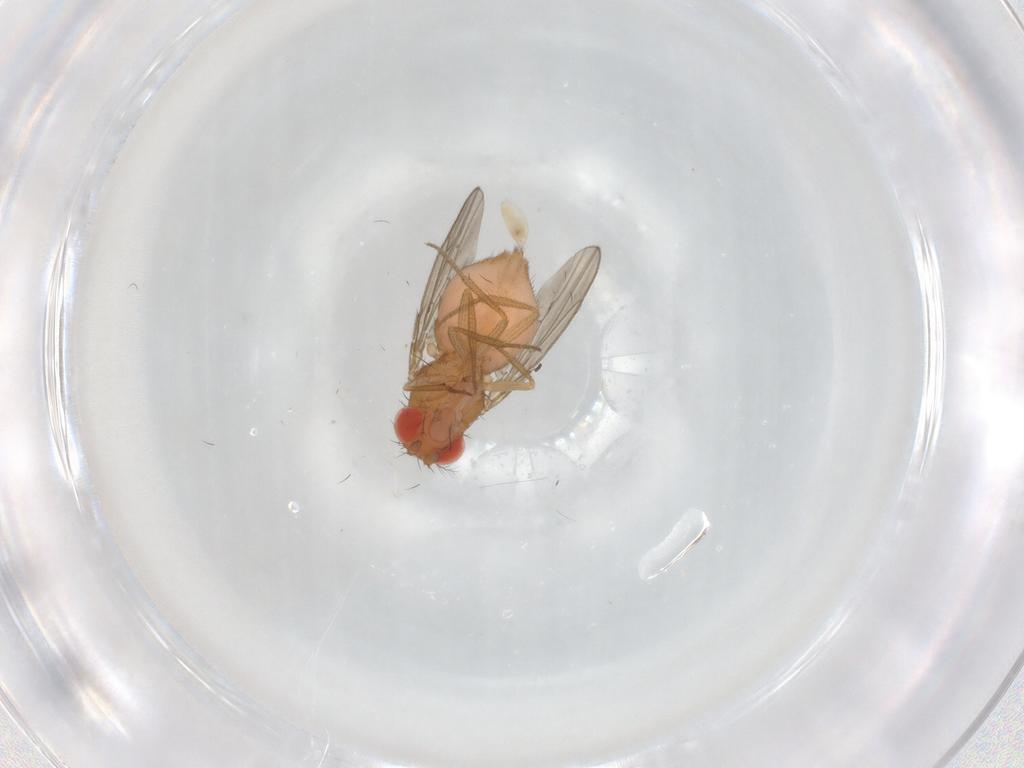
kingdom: Animalia
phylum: Arthropoda
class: Insecta
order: Diptera
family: Drosophilidae
